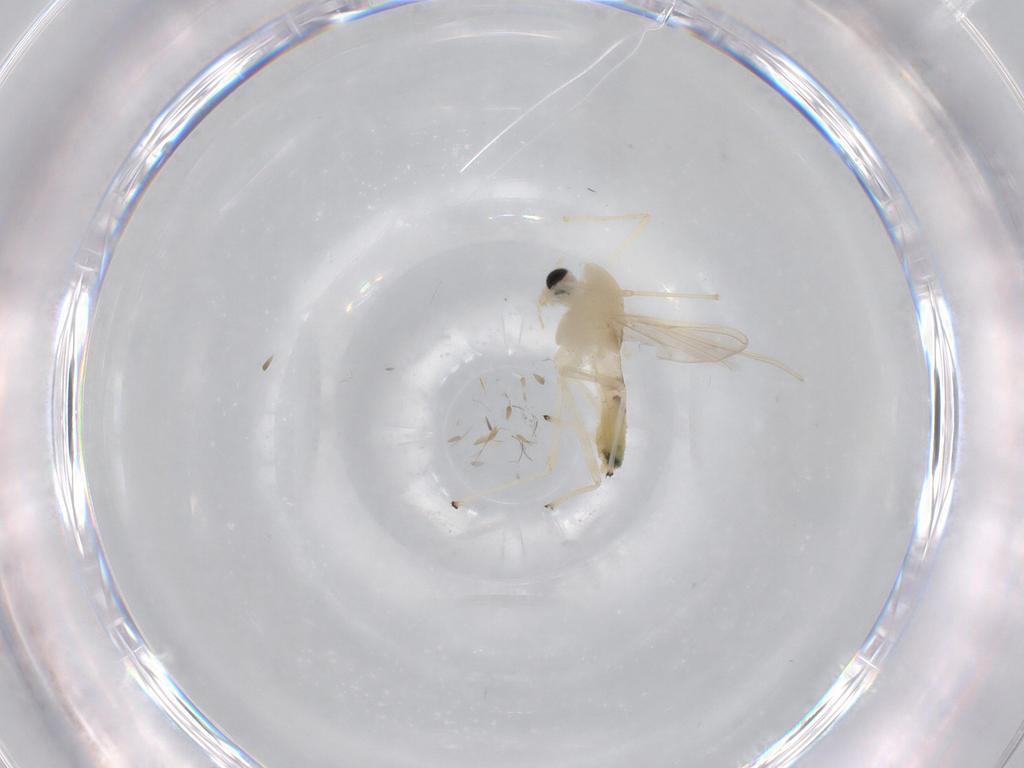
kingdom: Animalia
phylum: Arthropoda
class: Insecta
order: Diptera
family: Chironomidae
